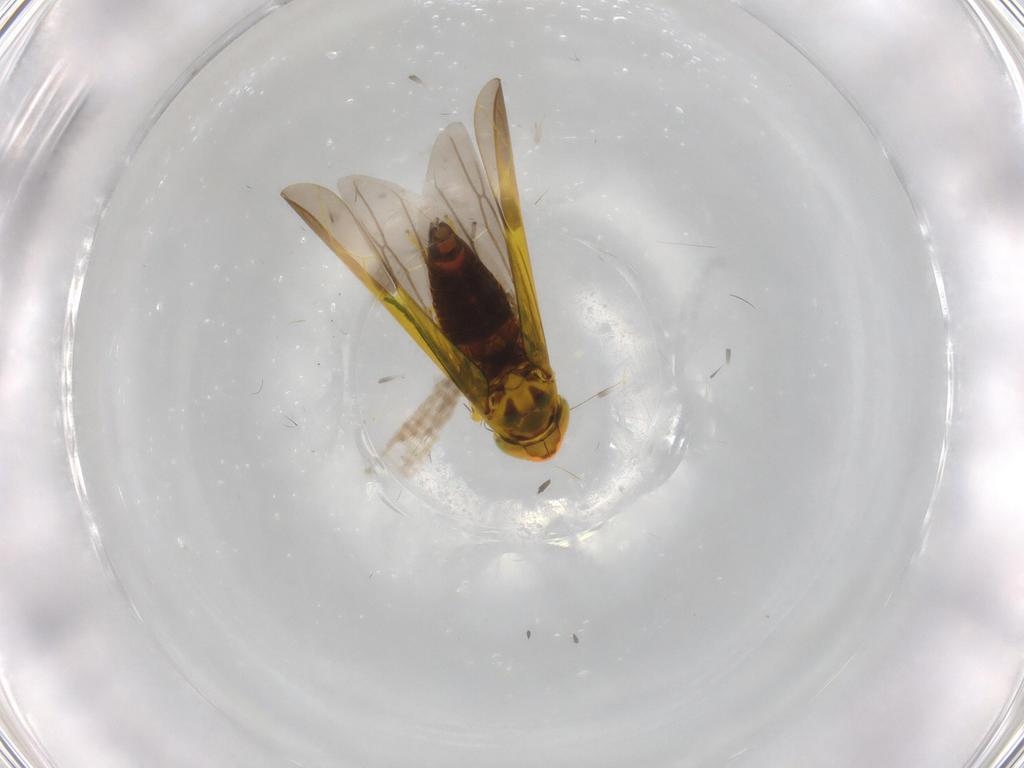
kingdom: Animalia
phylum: Arthropoda
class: Insecta
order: Hemiptera
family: Cicadellidae
